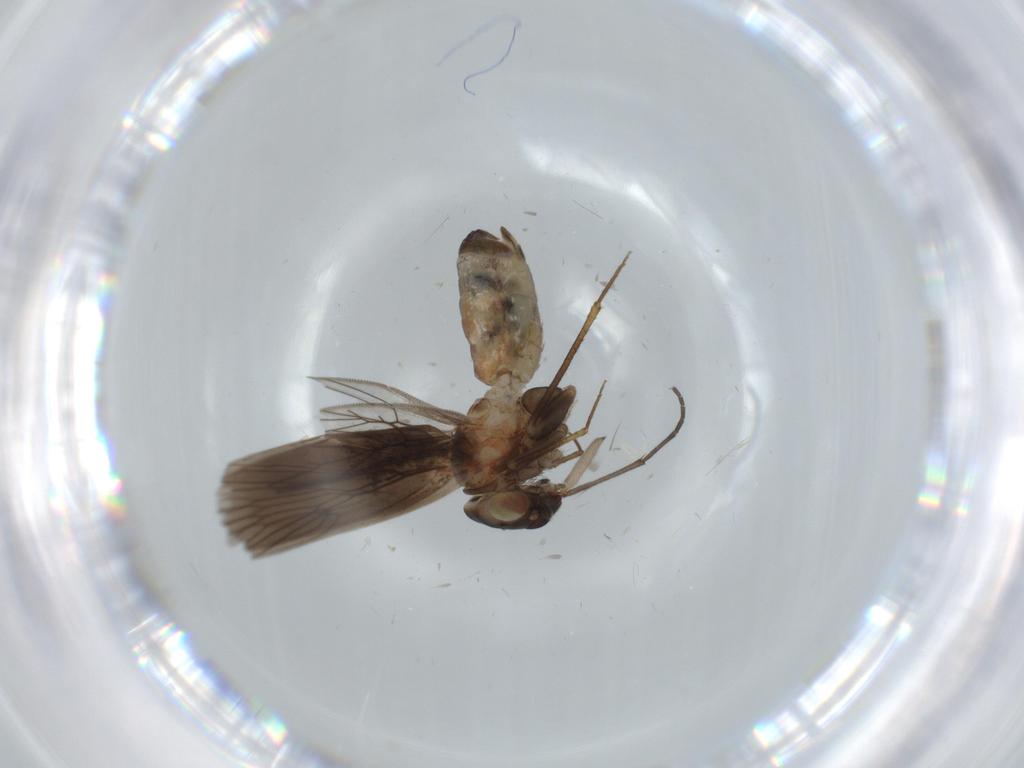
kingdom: Animalia
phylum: Arthropoda
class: Insecta
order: Psocodea
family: Lepidopsocidae
